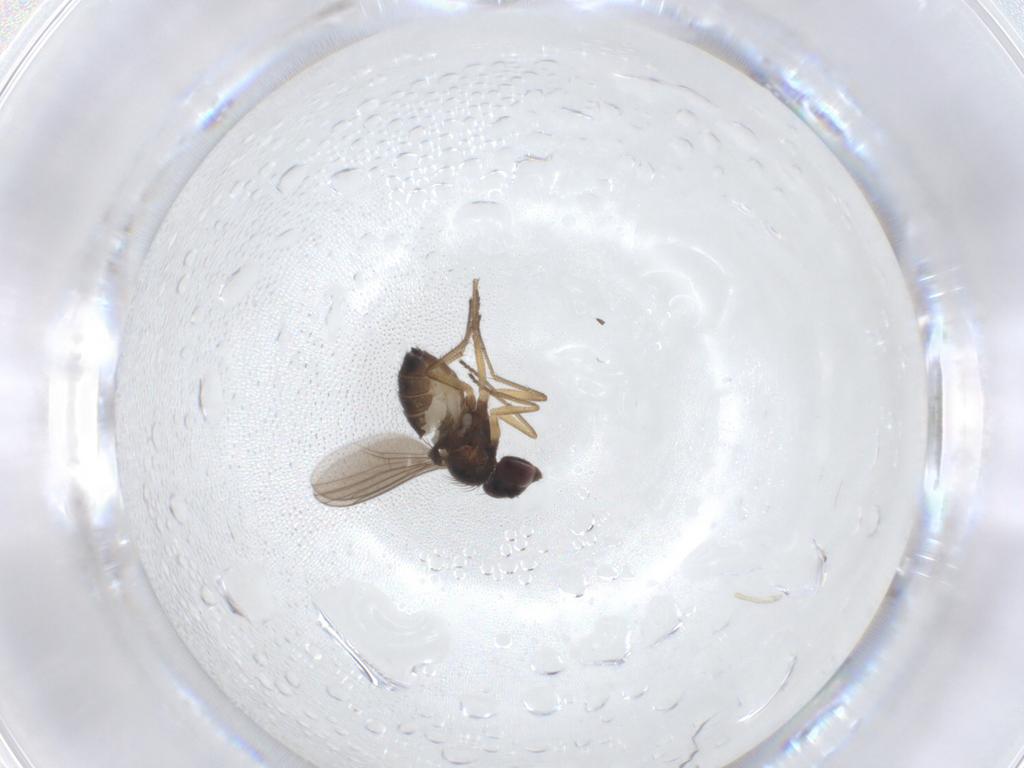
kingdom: Animalia
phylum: Arthropoda
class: Insecta
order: Diptera
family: Dolichopodidae
